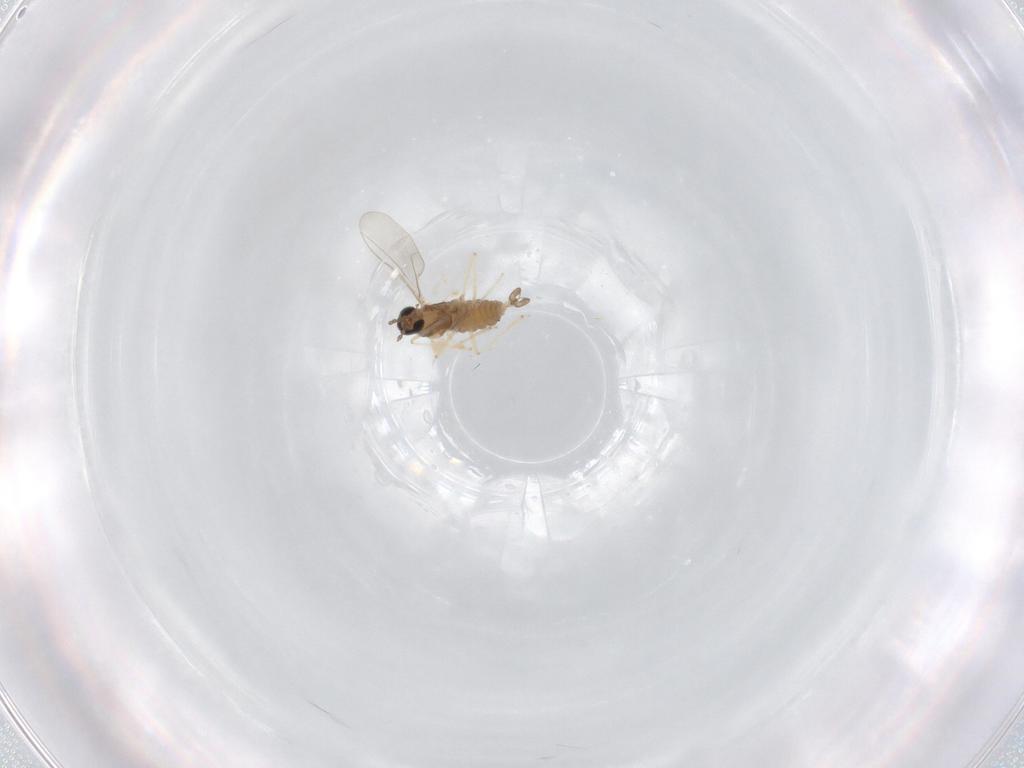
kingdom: Animalia
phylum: Arthropoda
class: Insecta
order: Diptera
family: Cecidomyiidae
